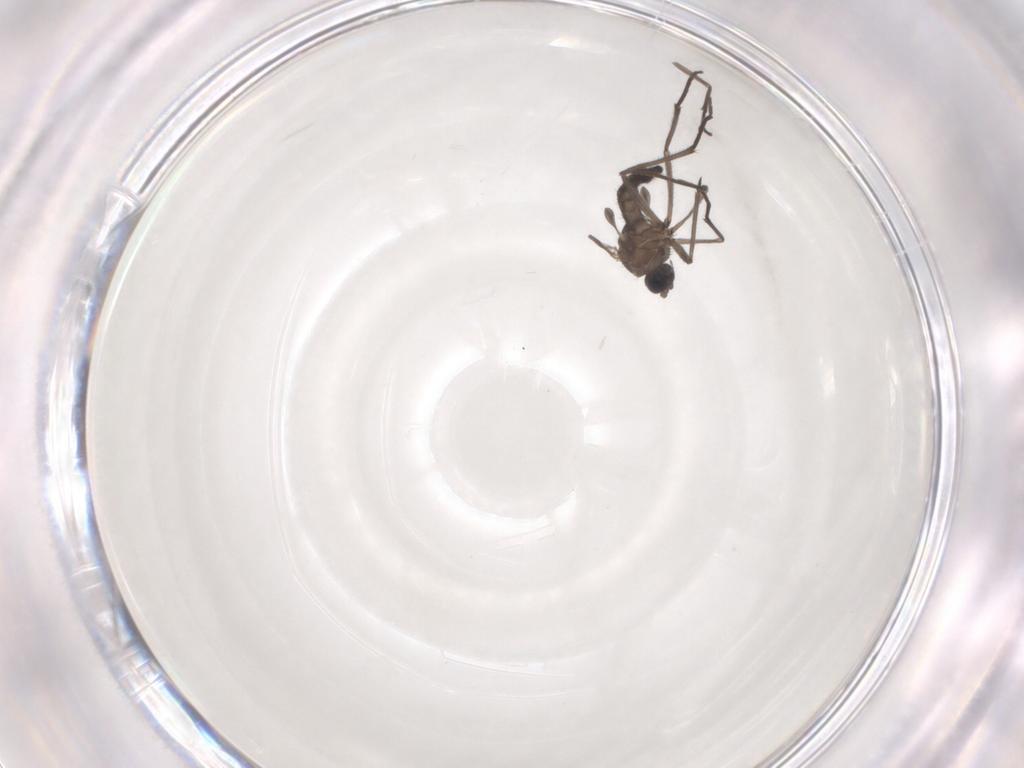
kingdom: Animalia
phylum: Arthropoda
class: Insecta
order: Diptera
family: Sciaridae
